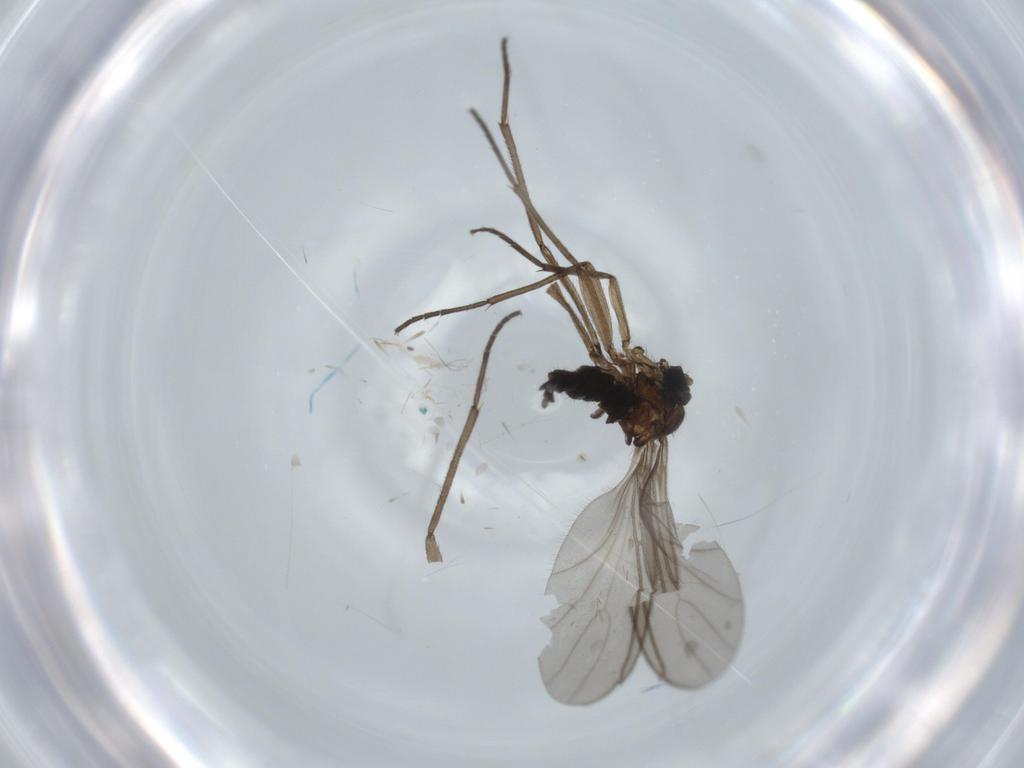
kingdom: Animalia
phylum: Arthropoda
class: Insecta
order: Diptera
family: Sciaridae
